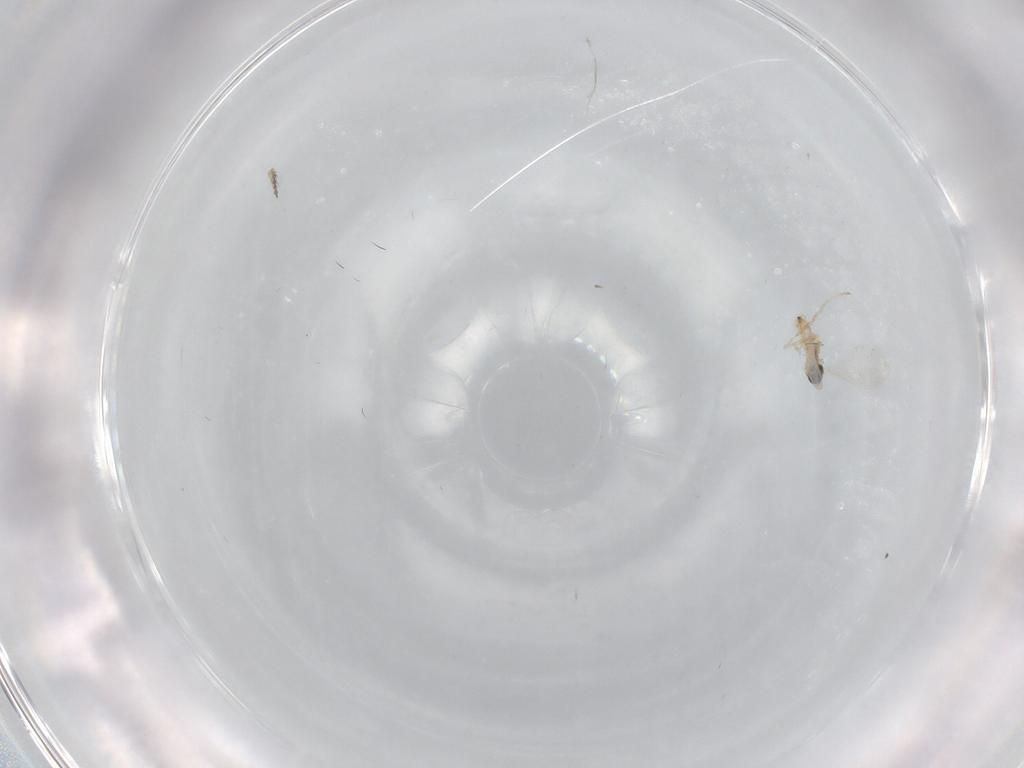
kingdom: Animalia
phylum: Arthropoda
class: Insecta
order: Diptera
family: Cecidomyiidae
